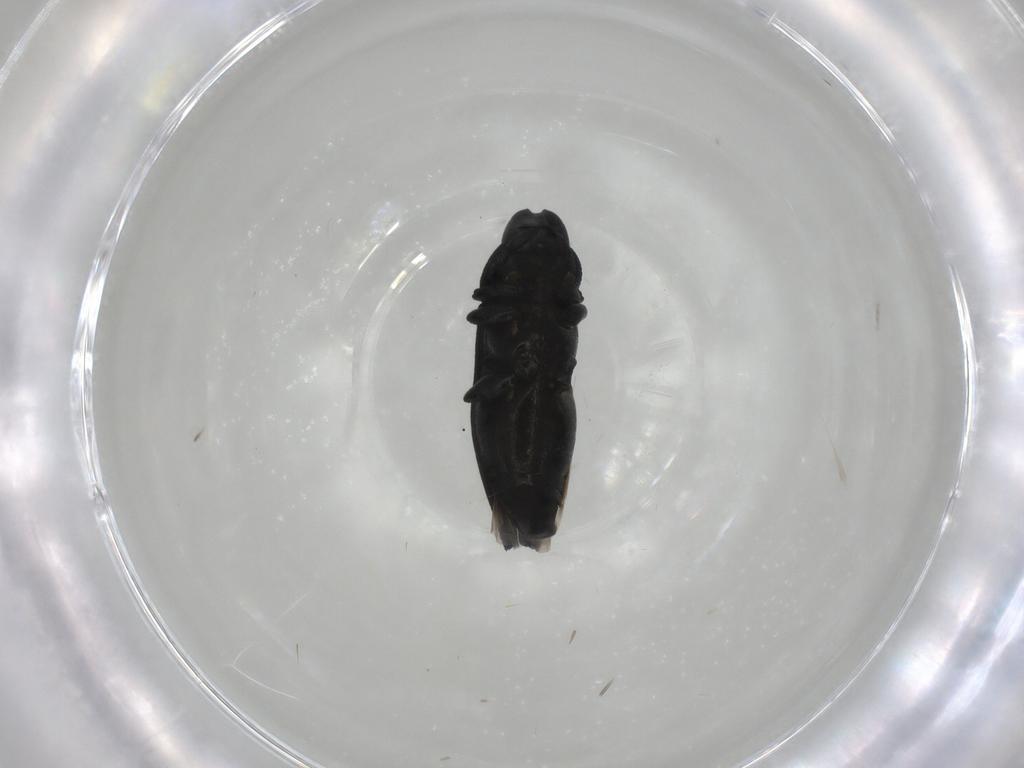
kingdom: Animalia
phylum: Arthropoda
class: Insecta
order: Coleoptera
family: Buprestidae
